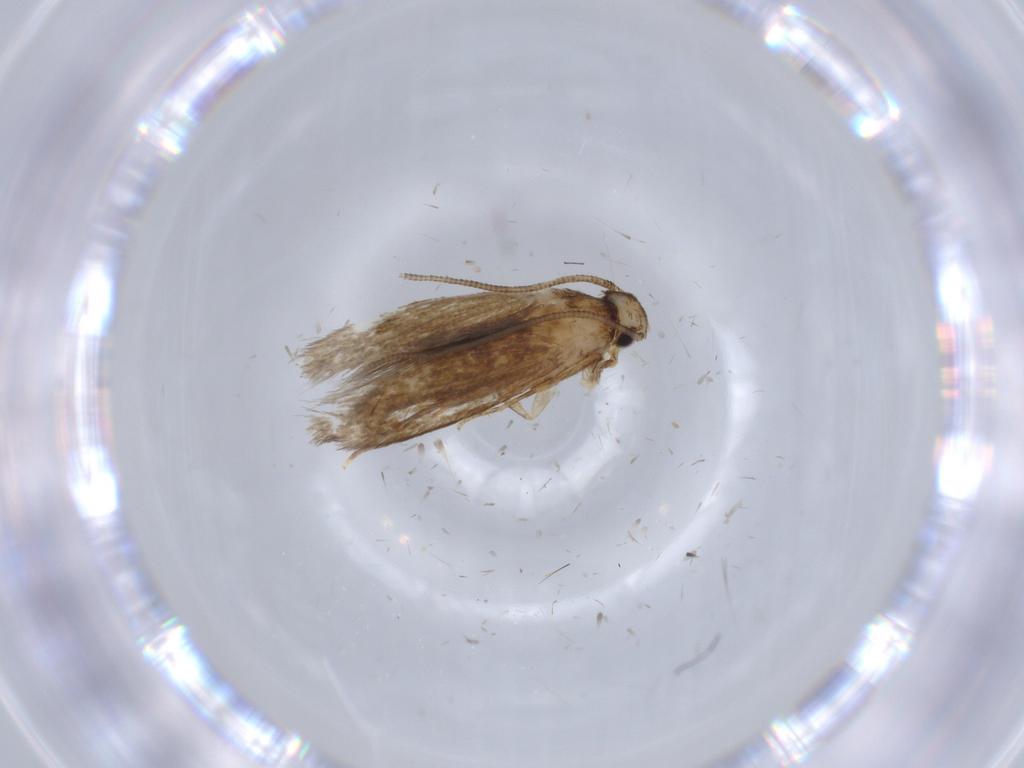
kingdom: Animalia
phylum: Arthropoda
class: Insecta
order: Lepidoptera
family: Tineidae
